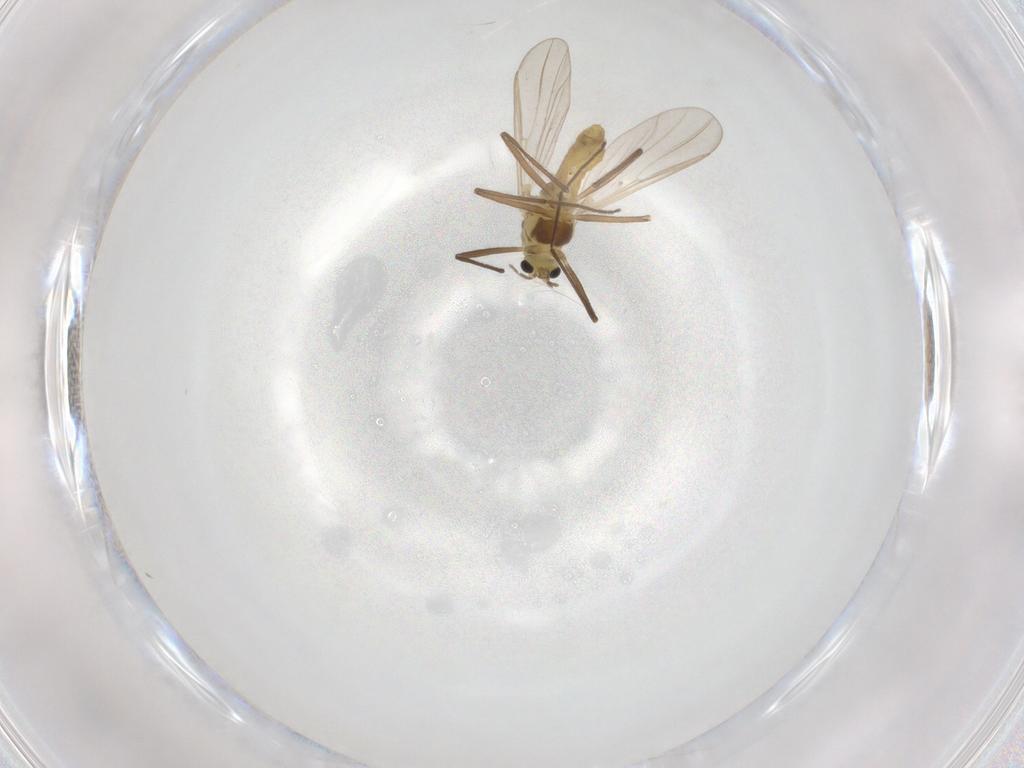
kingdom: Animalia
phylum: Arthropoda
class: Insecta
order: Diptera
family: Chironomidae
